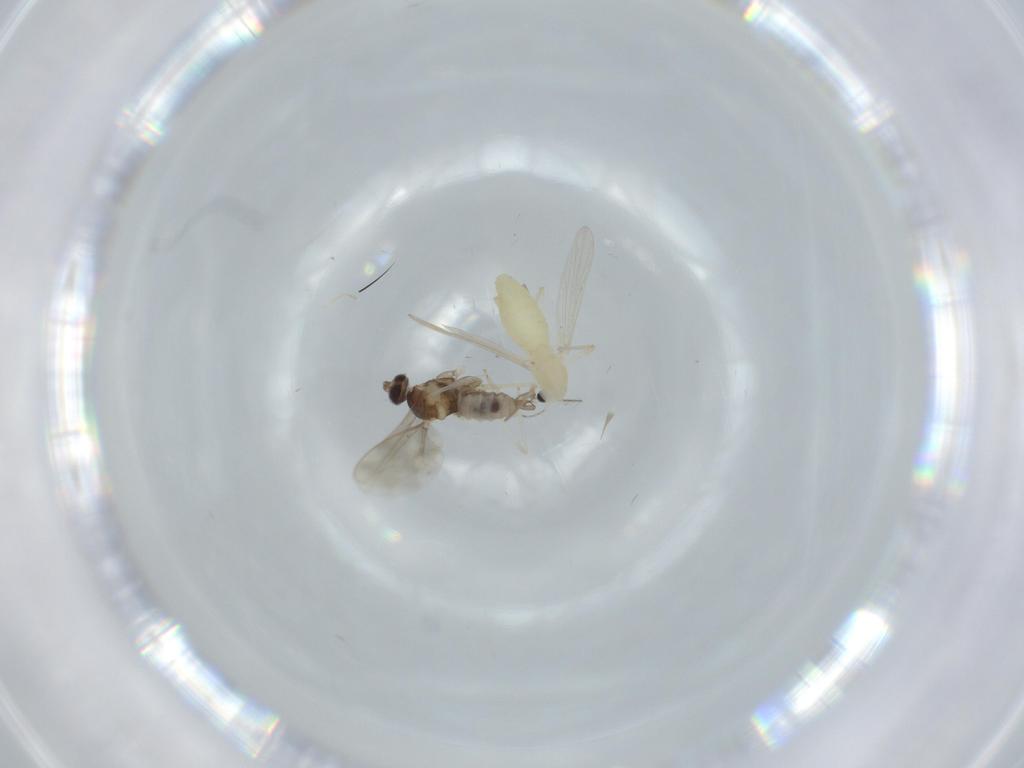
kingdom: Animalia
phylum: Arthropoda
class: Insecta
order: Diptera
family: Chironomidae
